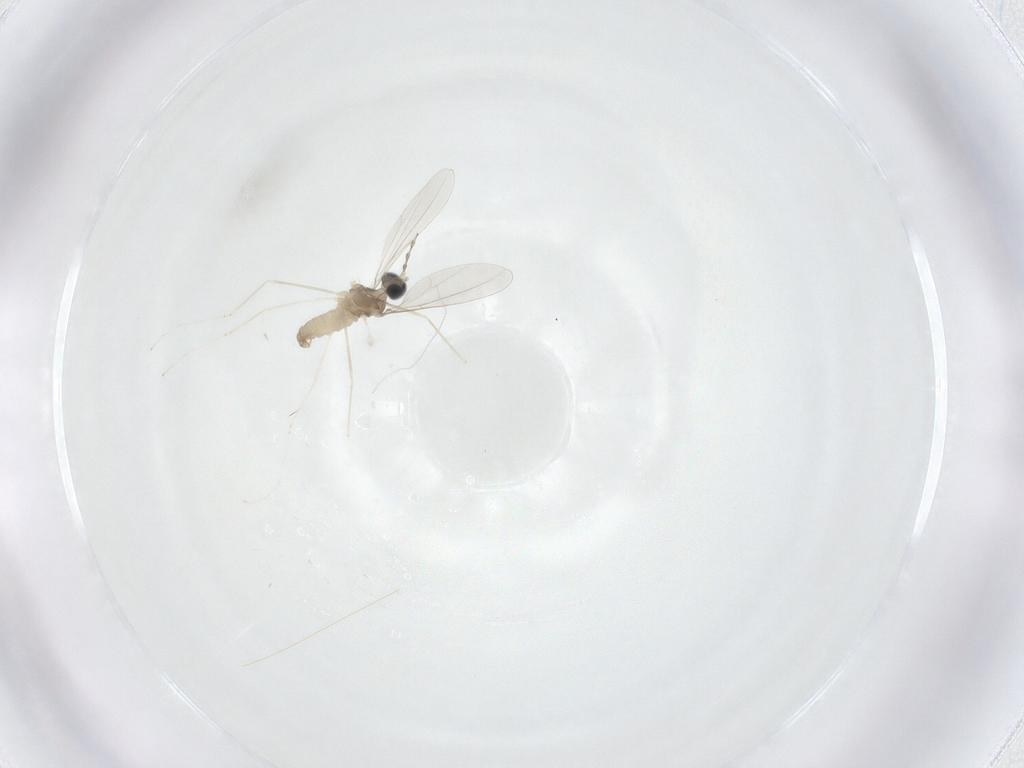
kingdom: Animalia
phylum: Arthropoda
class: Insecta
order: Diptera
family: Cecidomyiidae
